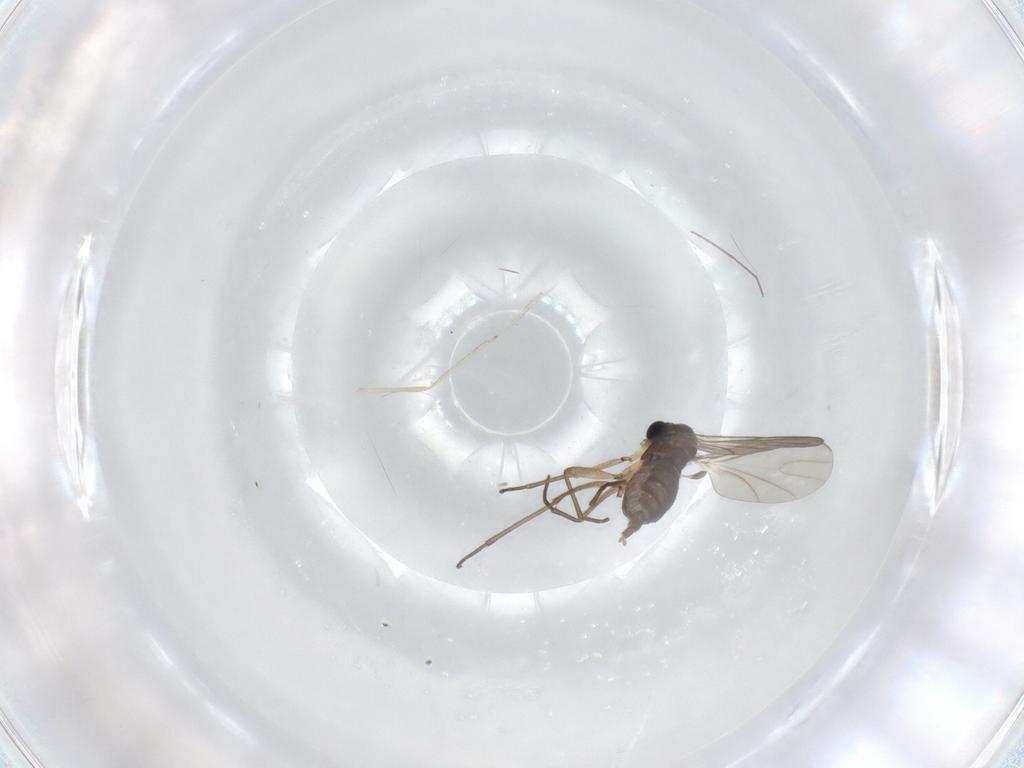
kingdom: Animalia
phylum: Arthropoda
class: Insecta
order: Diptera
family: Chironomidae
